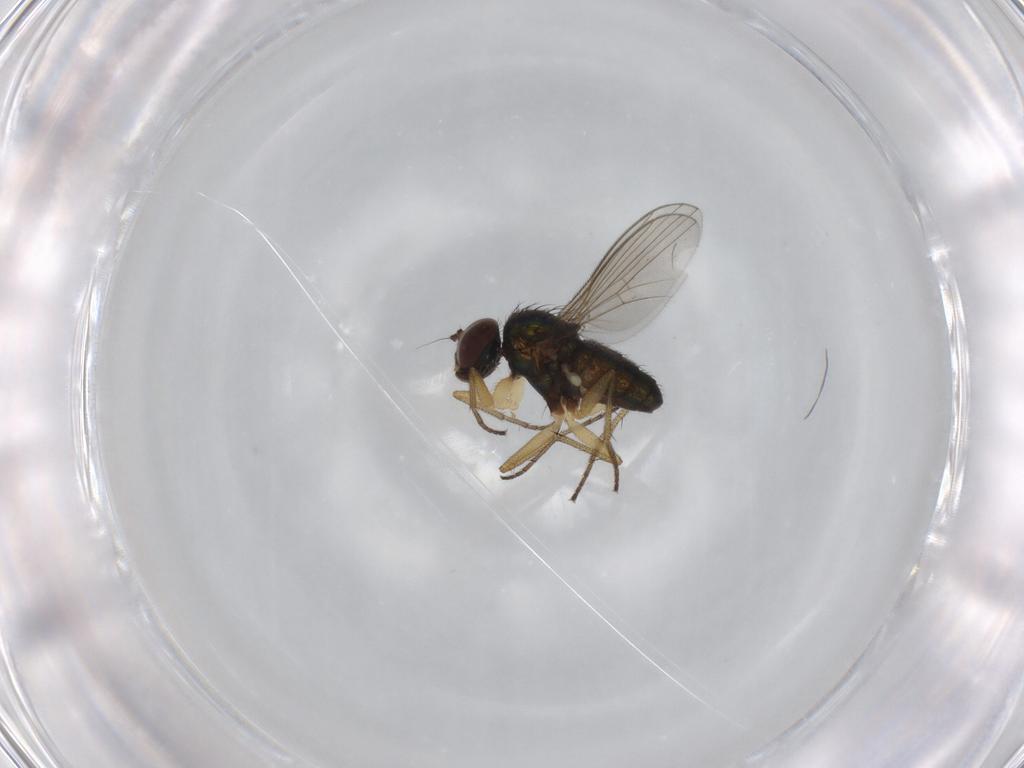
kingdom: Animalia
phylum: Arthropoda
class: Insecta
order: Diptera
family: Dolichopodidae
